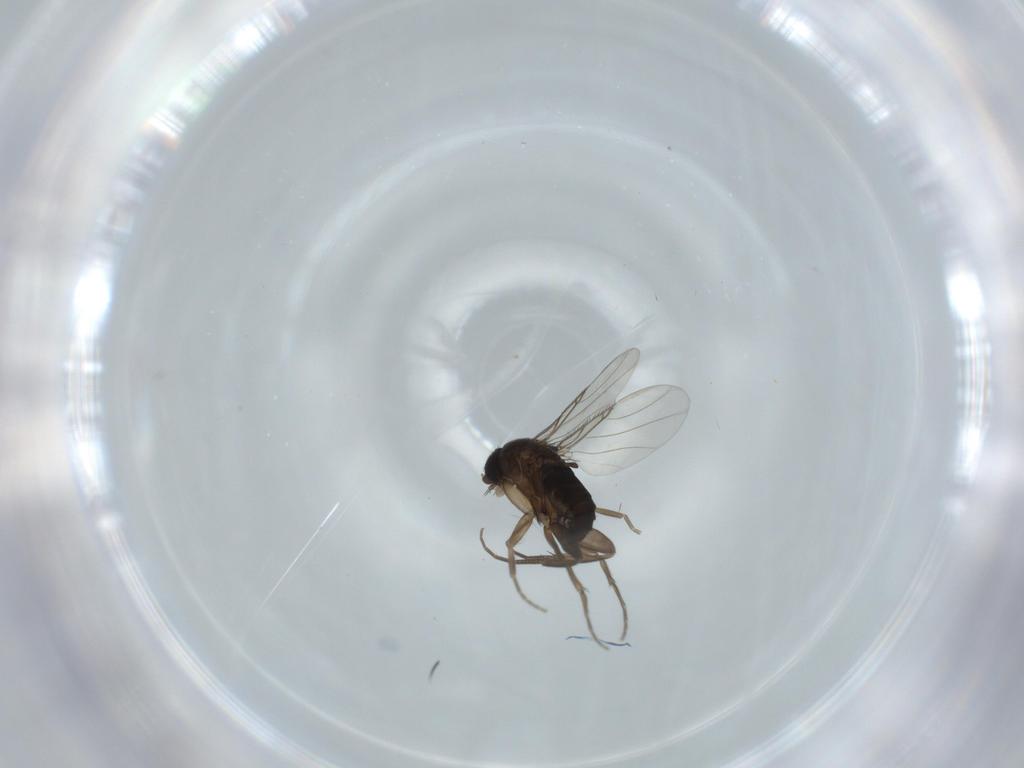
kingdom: Animalia
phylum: Arthropoda
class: Insecta
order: Diptera
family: Phoridae
